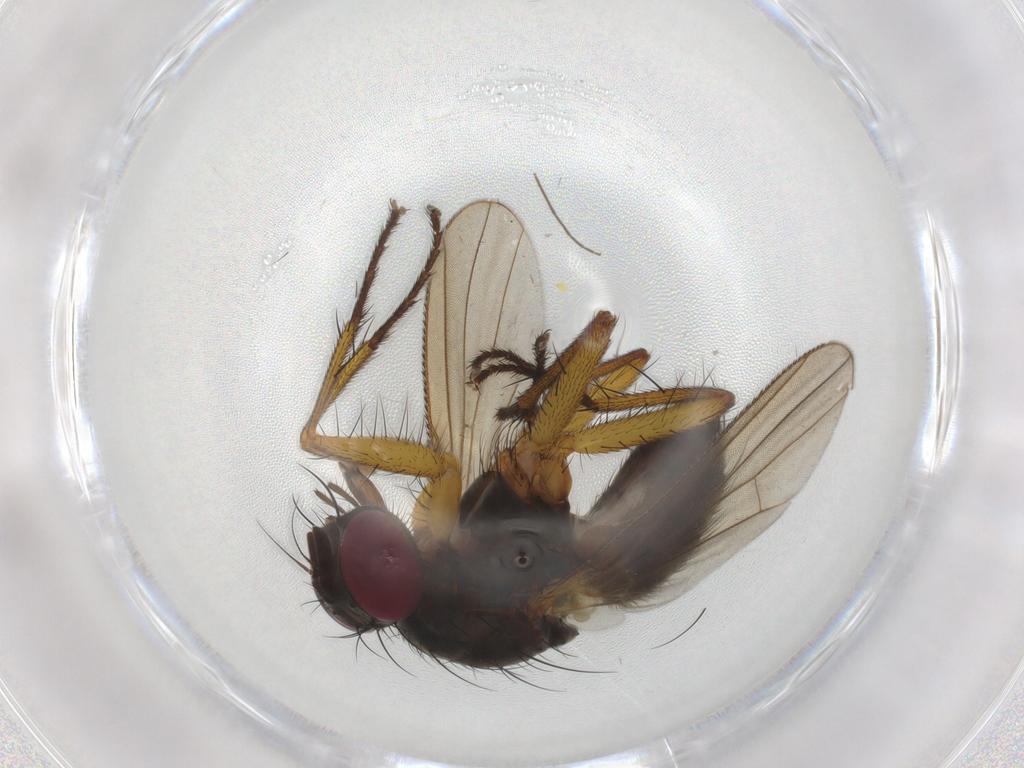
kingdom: Animalia
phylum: Arthropoda
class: Insecta
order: Diptera
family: Muscidae
